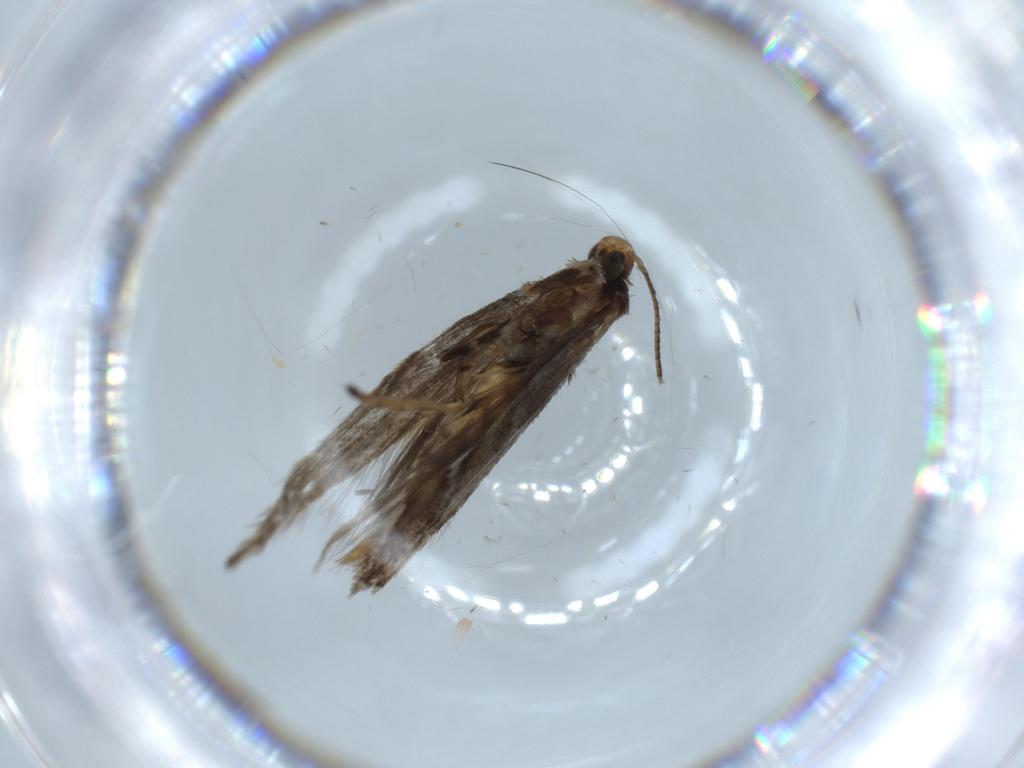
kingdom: Animalia
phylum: Arthropoda
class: Insecta
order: Lepidoptera
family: Gracillariidae
